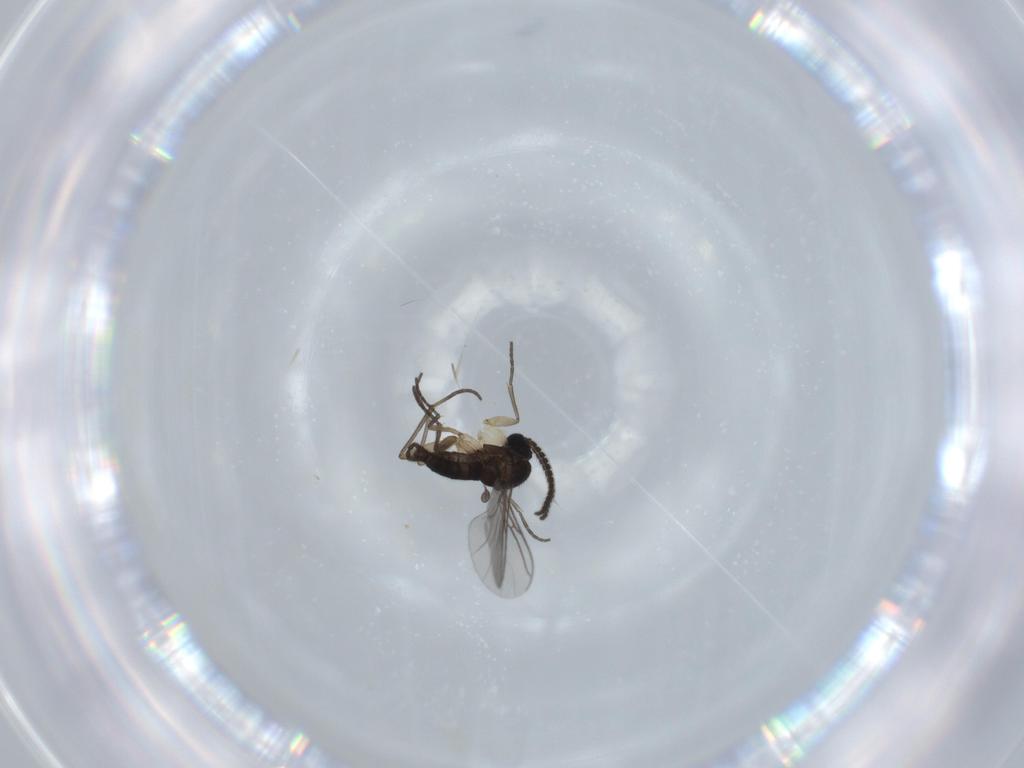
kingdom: Animalia
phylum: Arthropoda
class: Insecta
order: Diptera
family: Sciaridae
